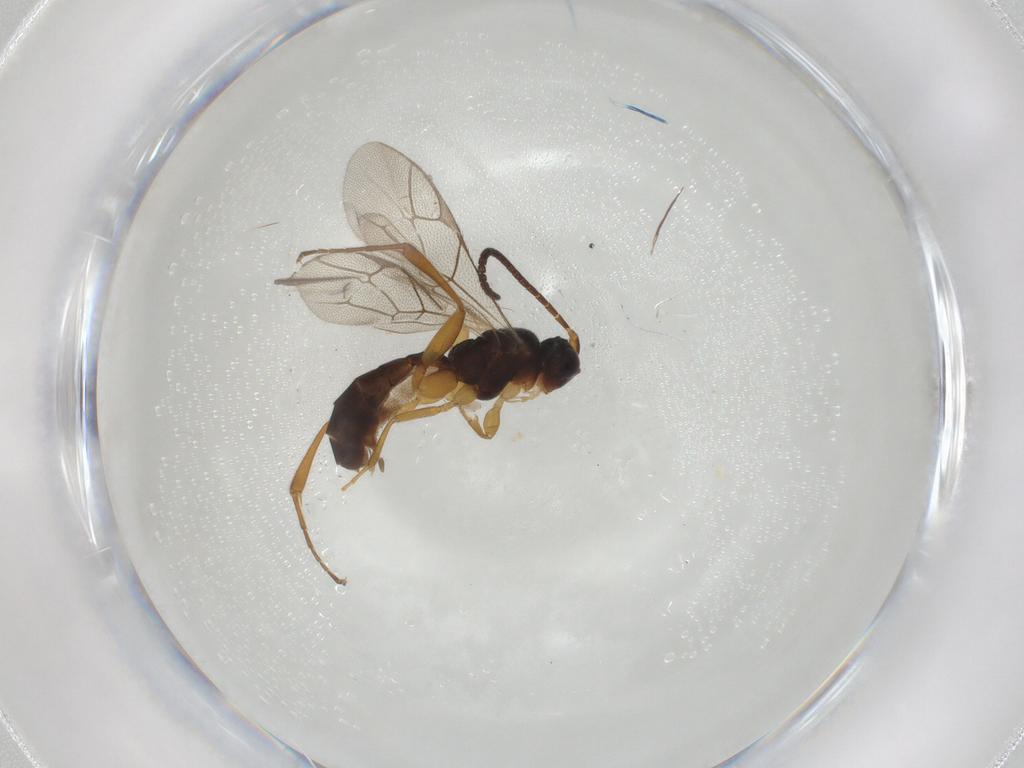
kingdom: Animalia
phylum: Arthropoda
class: Insecta
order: Hymenoptera
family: Ichneumonidae
